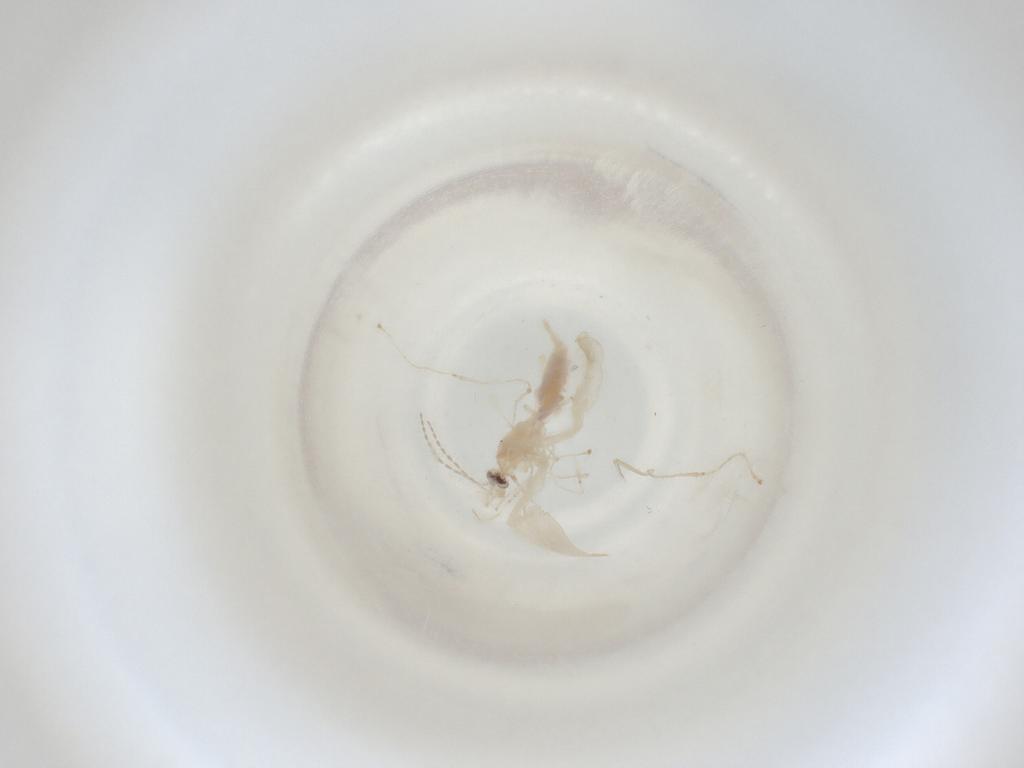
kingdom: Animalia
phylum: Arthropoda
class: Insecta
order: Diptera
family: Cecidomyiidae
